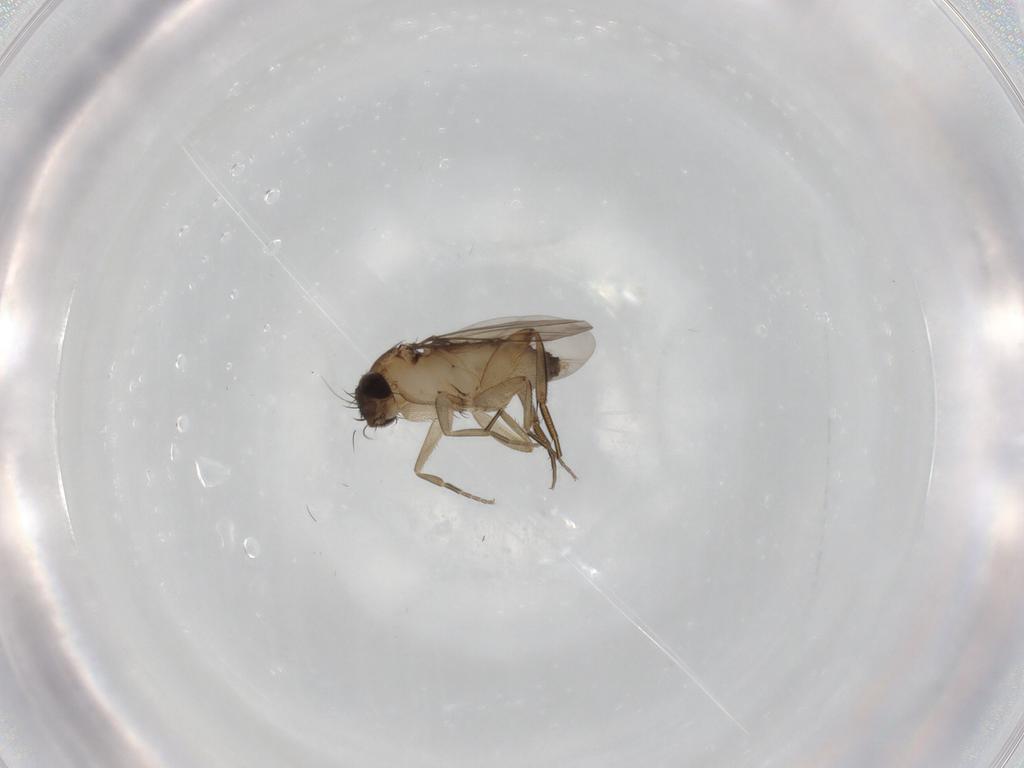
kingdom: Animalia
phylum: Arthropoda
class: Insecta
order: Diptera
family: Phoridae
